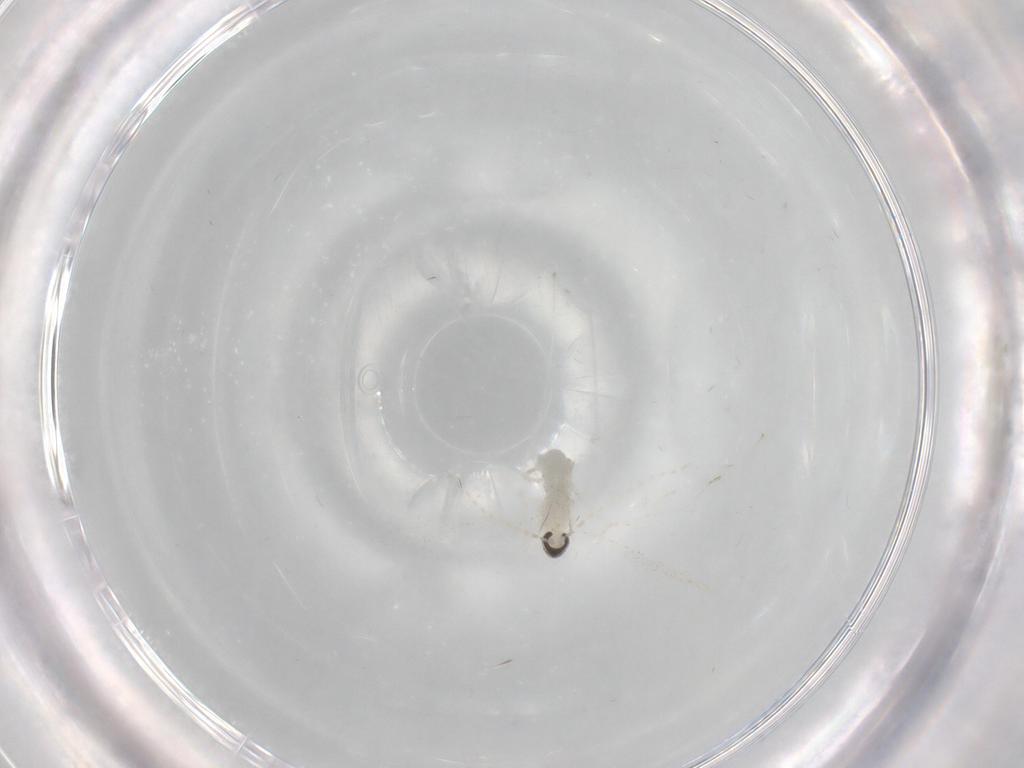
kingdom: Animalia
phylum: Arthropoda
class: Insecta
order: Diptera
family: Cecidomyiidae
